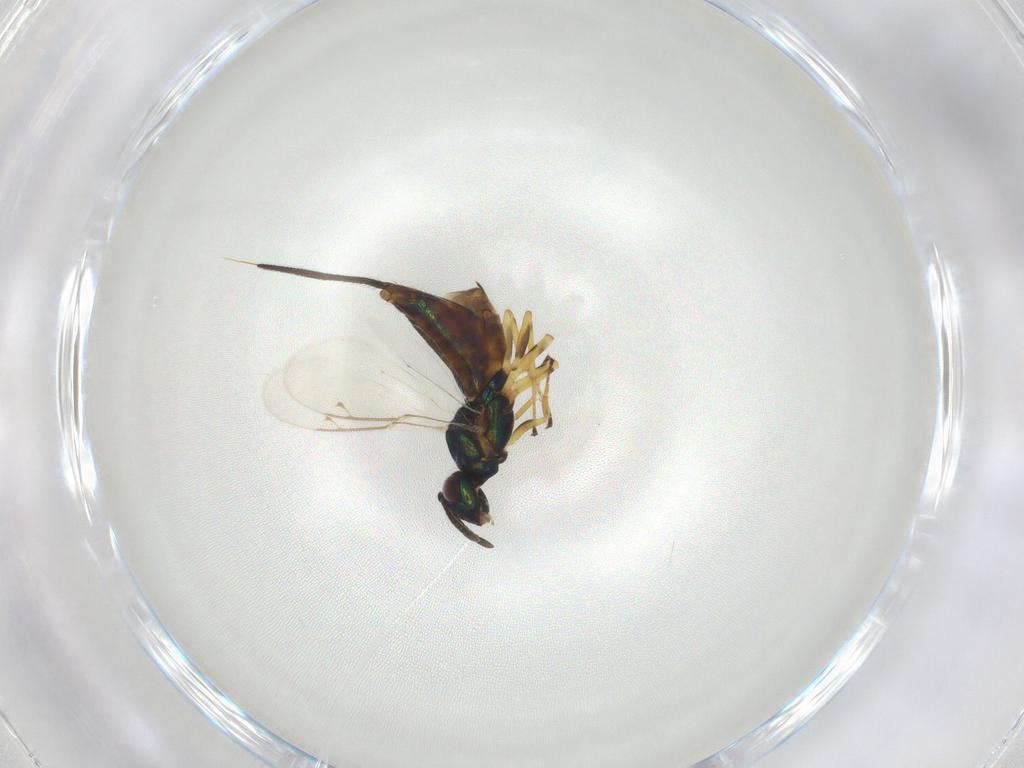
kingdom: Animalia
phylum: Arthropoda
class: Insecta
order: Hymenoptera
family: Eupelmidae
